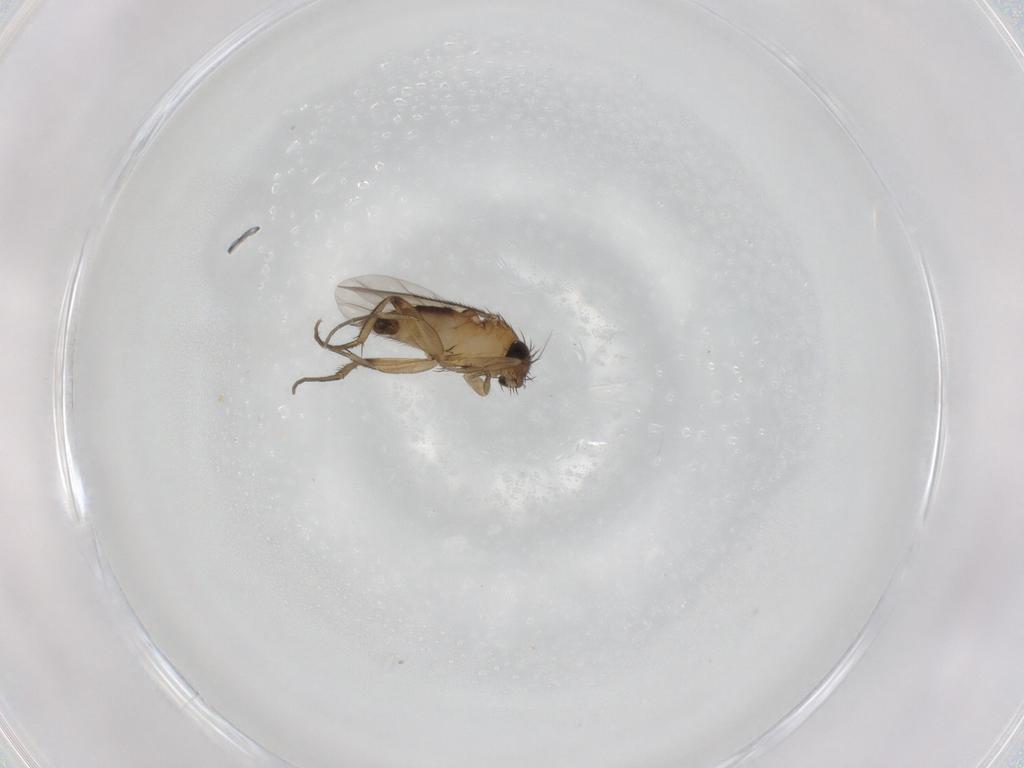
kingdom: Animalia
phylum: Arthropoda
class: Insecta
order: Diptera
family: Phoridae
